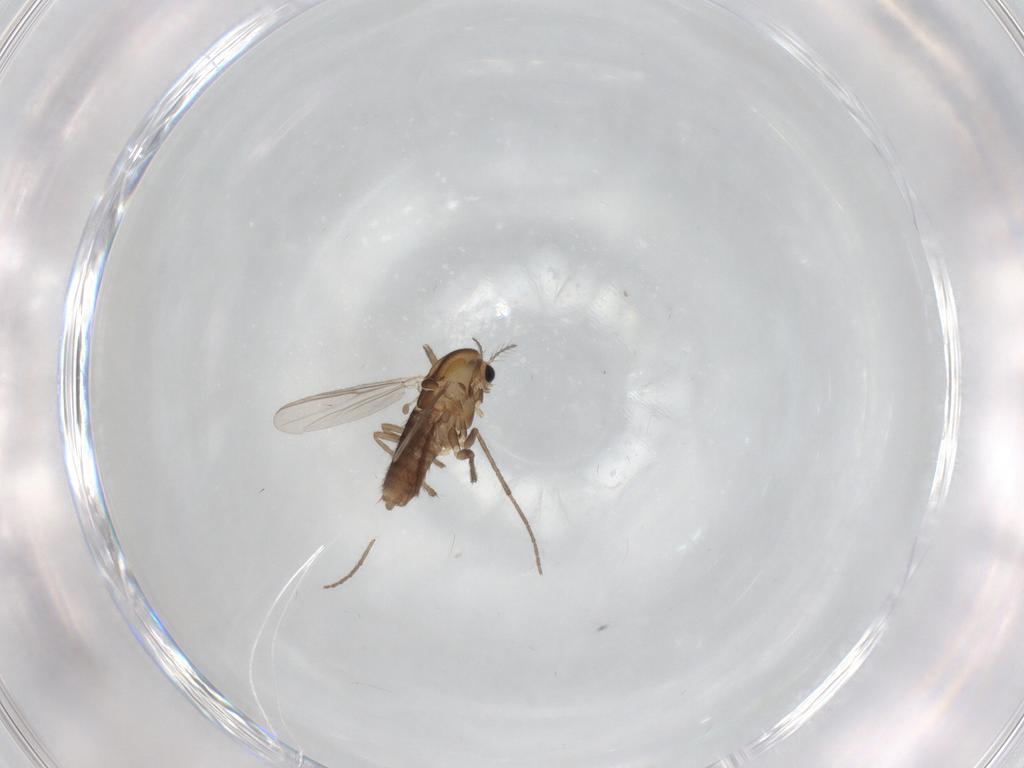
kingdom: Animalia
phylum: Arthropoda
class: Insecta
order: Diptera
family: Chironomidae
